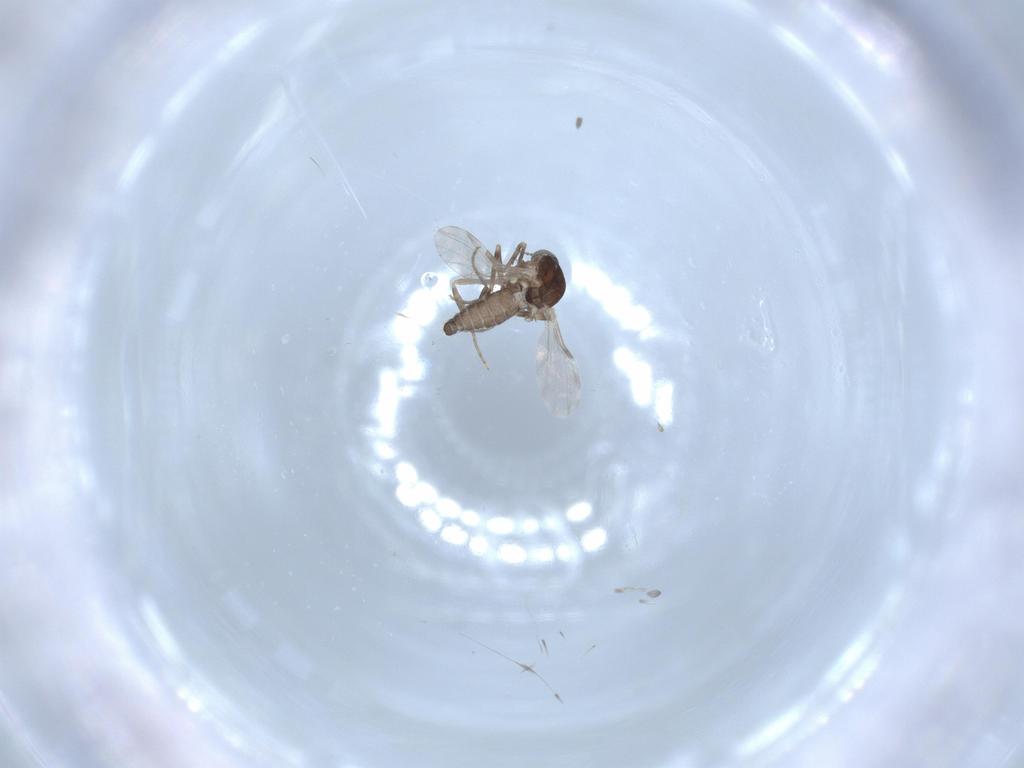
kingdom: Animalia
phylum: Arthropoda
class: Insecta
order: Diptera
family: Ceratopogonidae
